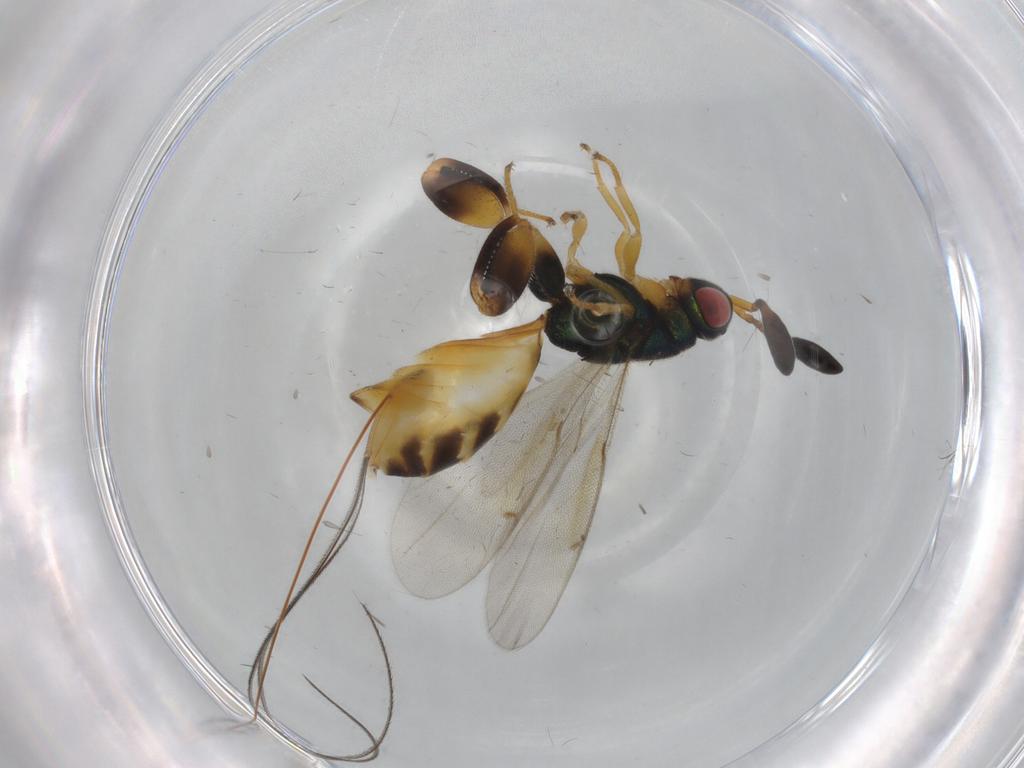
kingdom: Animalia
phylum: Arthropoda
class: Insecta
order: Hymenoptera
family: Torymidae
